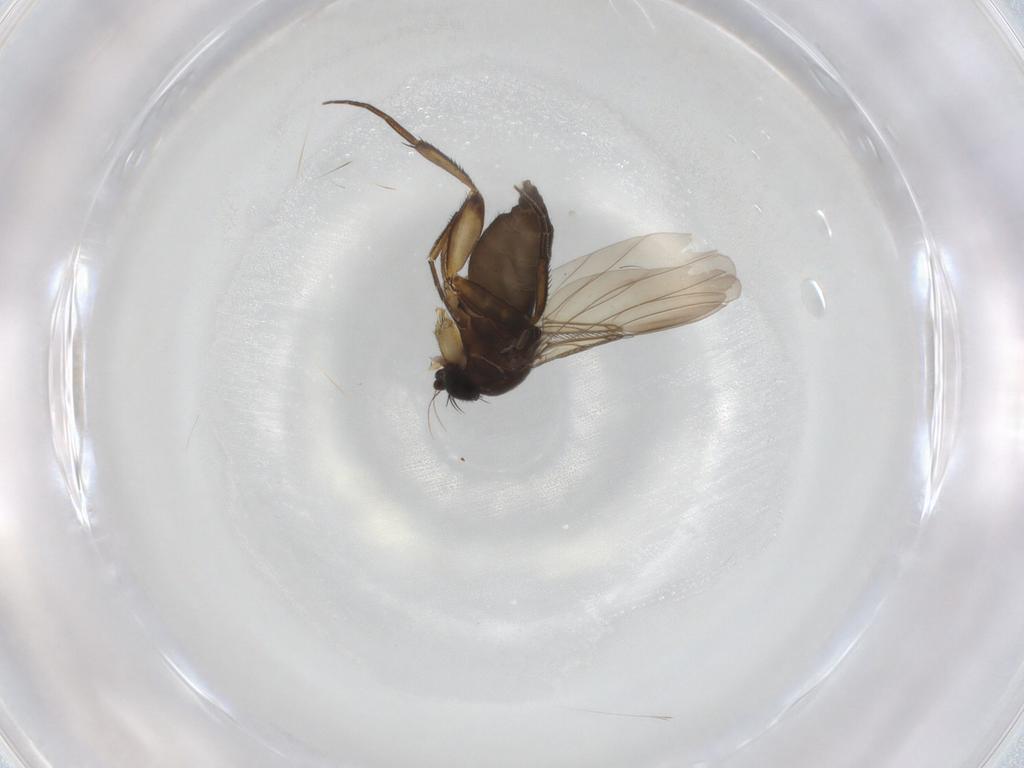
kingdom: Animalia
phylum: Arthropoda
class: Insecta
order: Diptera
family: Phoridae
